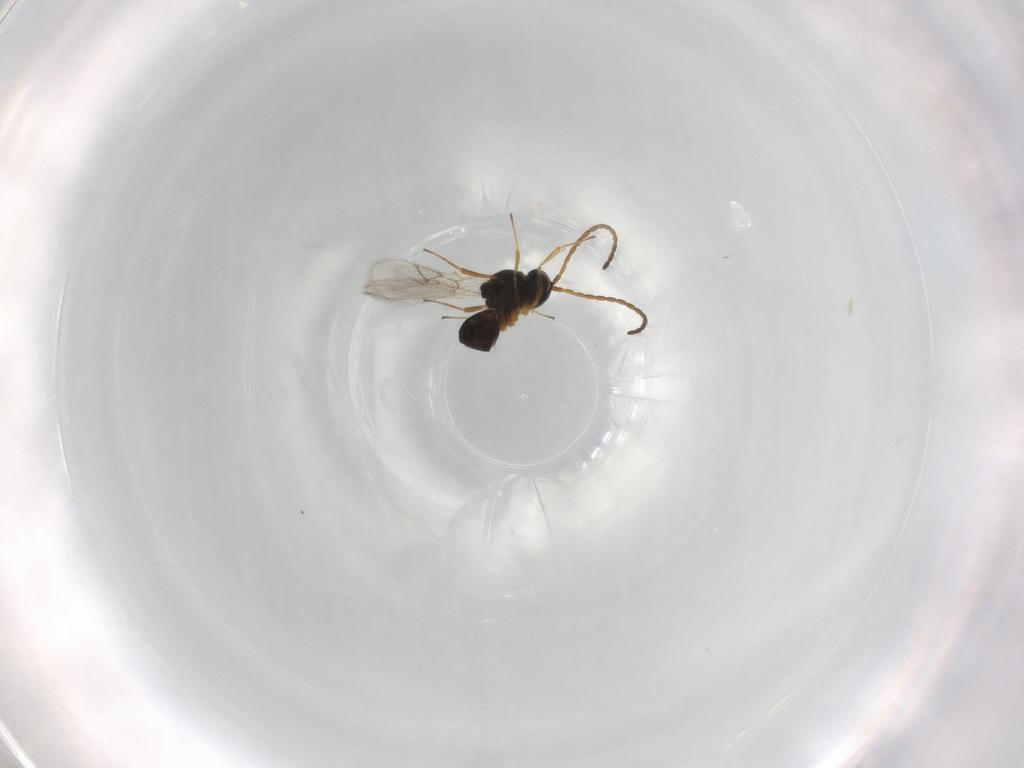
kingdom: Animalia
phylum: Arthropoda
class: Insecta
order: Hymenoptera
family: Figitidae
